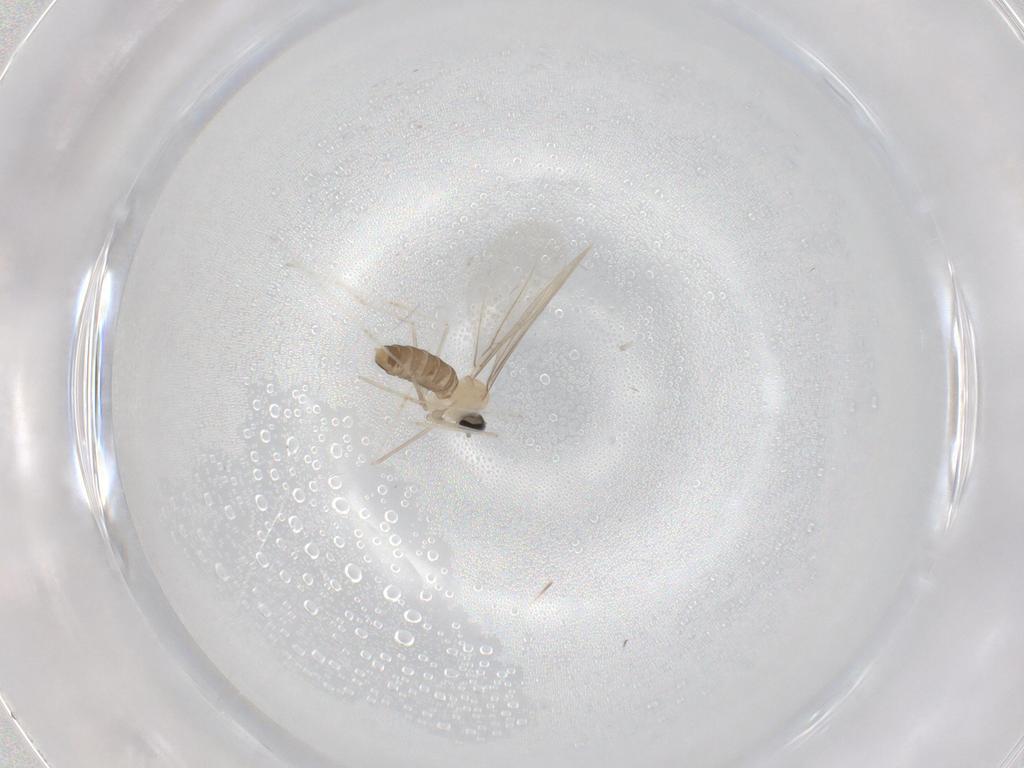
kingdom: Animalia
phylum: Arthropoda
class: Insecta
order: Diptera
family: Cecidomyiidae
